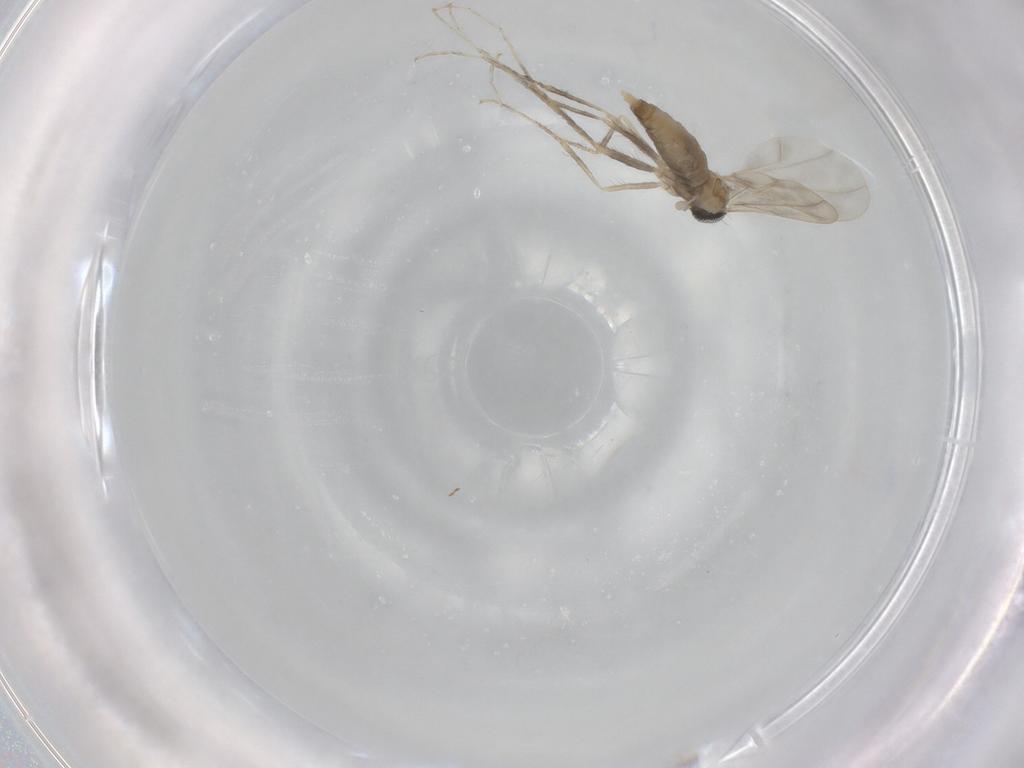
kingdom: Animalia
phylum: Arthropoda
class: Insecta
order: Diptera
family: Cecidomyiidae
